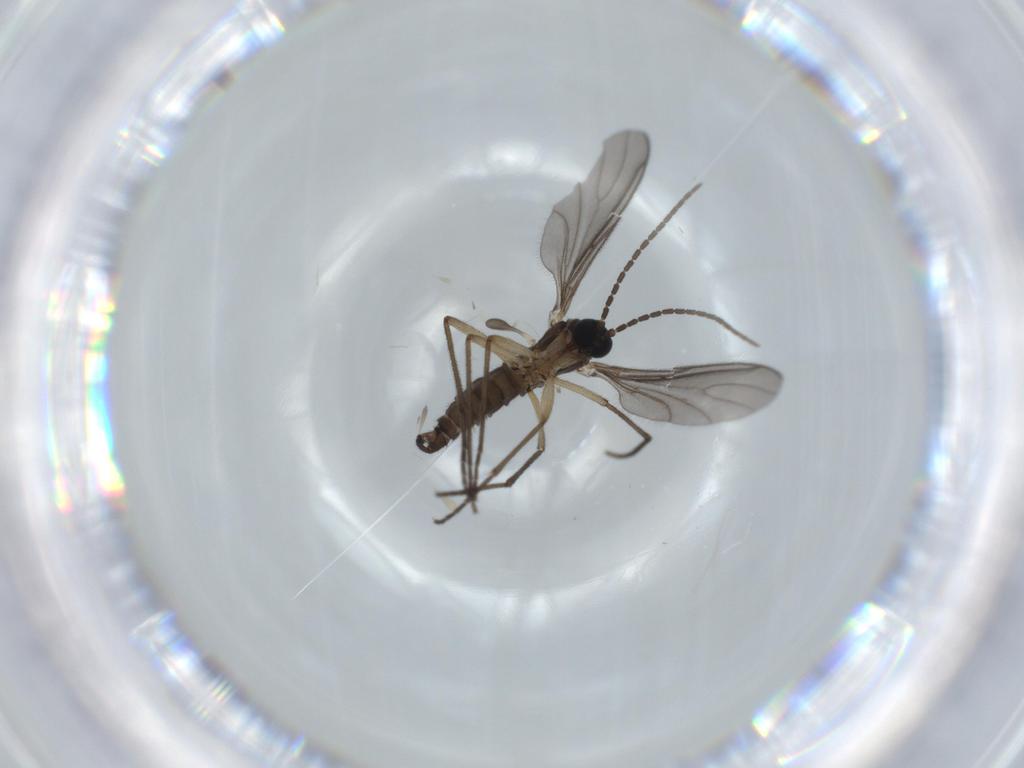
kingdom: Animalia
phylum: Arthropoda
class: Insecta
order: Diptera
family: Sciaridae
